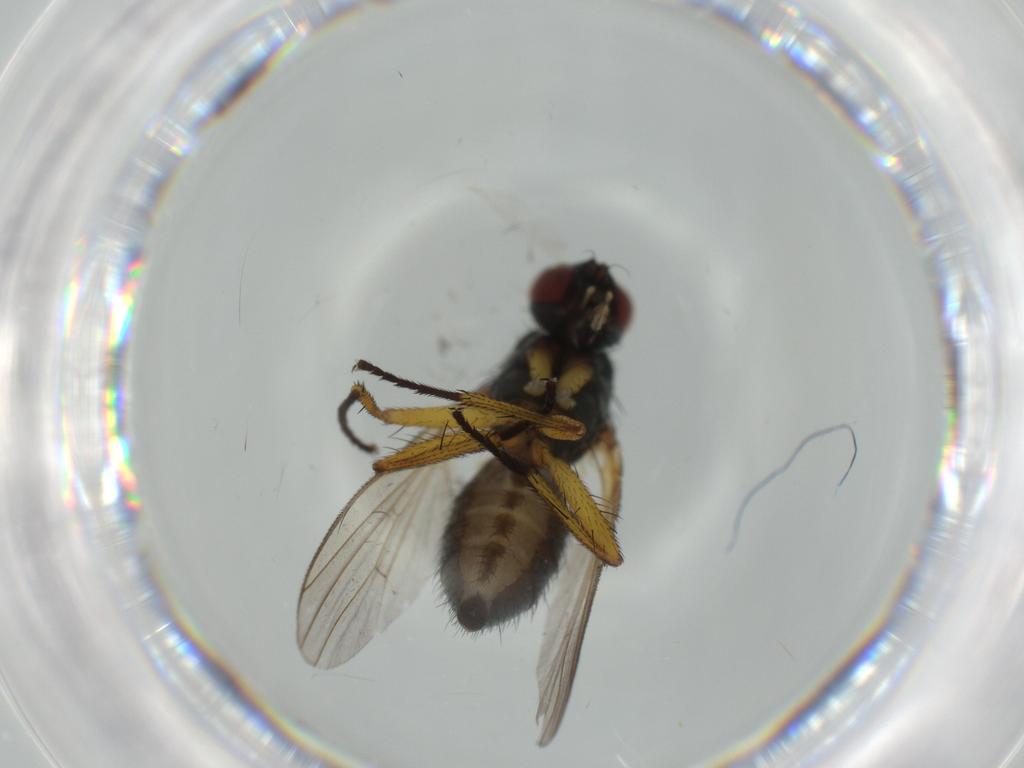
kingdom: Animalia
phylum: Arthropoda
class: Insecta
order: Diptera
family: Muscidae
